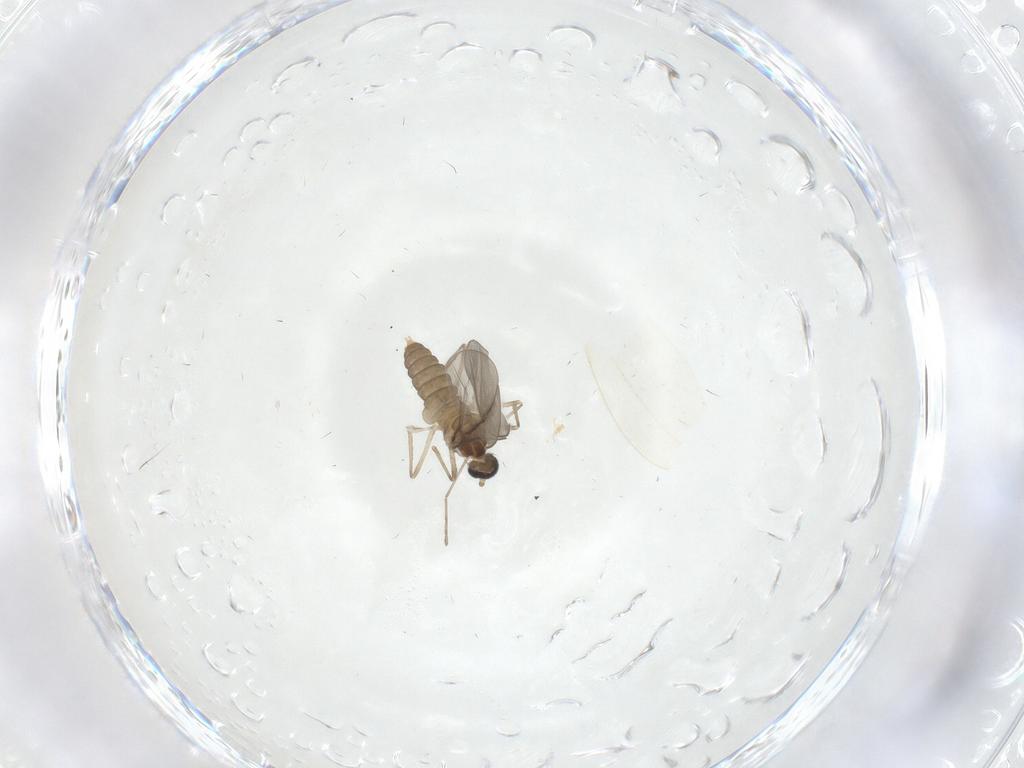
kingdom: Animalia
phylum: Arthropoda
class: Insecta
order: Diptera
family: Cecidomyiidae
